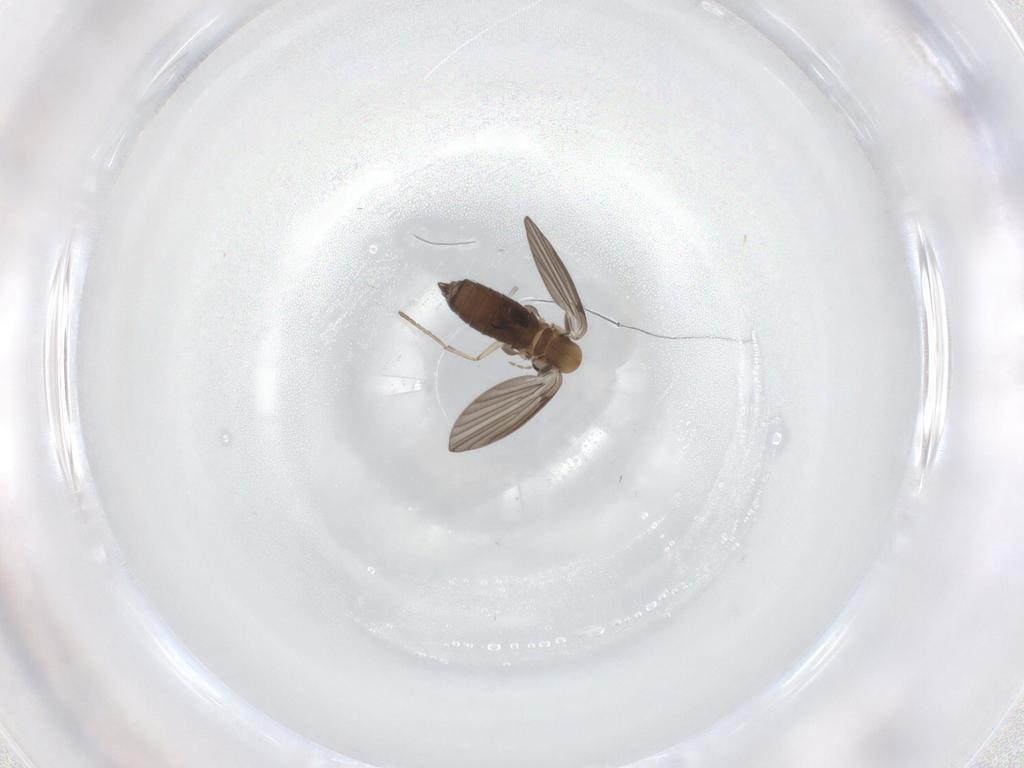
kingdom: Animalia
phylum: Arthropoda
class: Insecta
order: Diptera
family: Psychodidae
